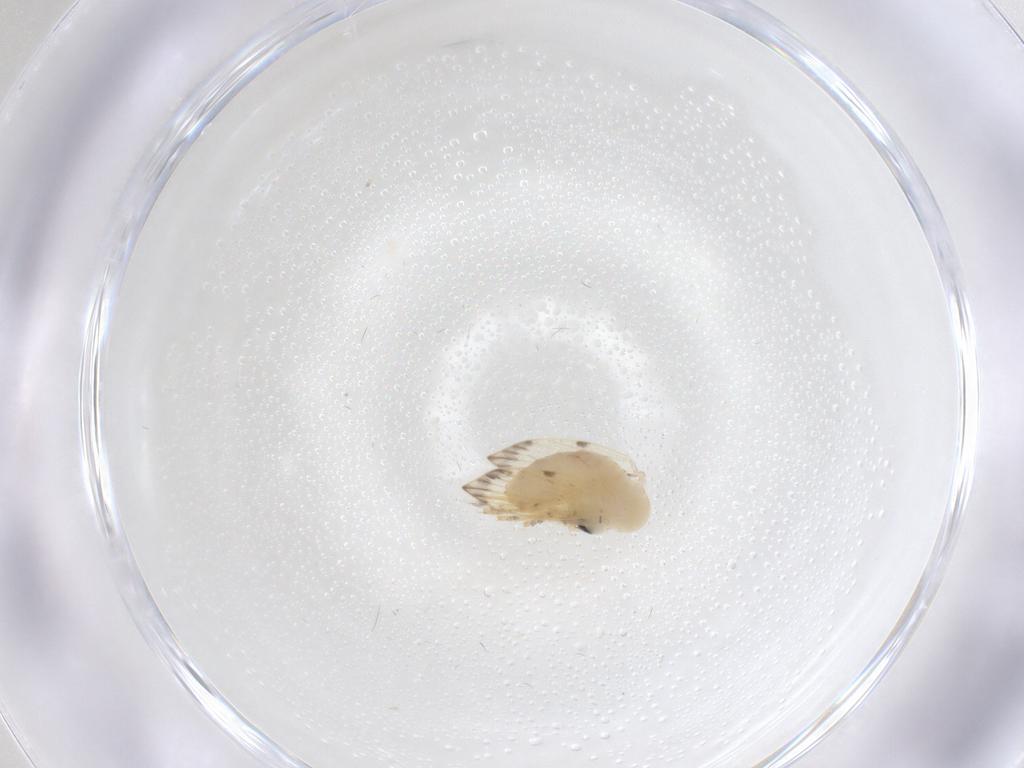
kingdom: Animalia
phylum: Arthropoda
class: Insecta
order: Diptera
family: Psychodidae
